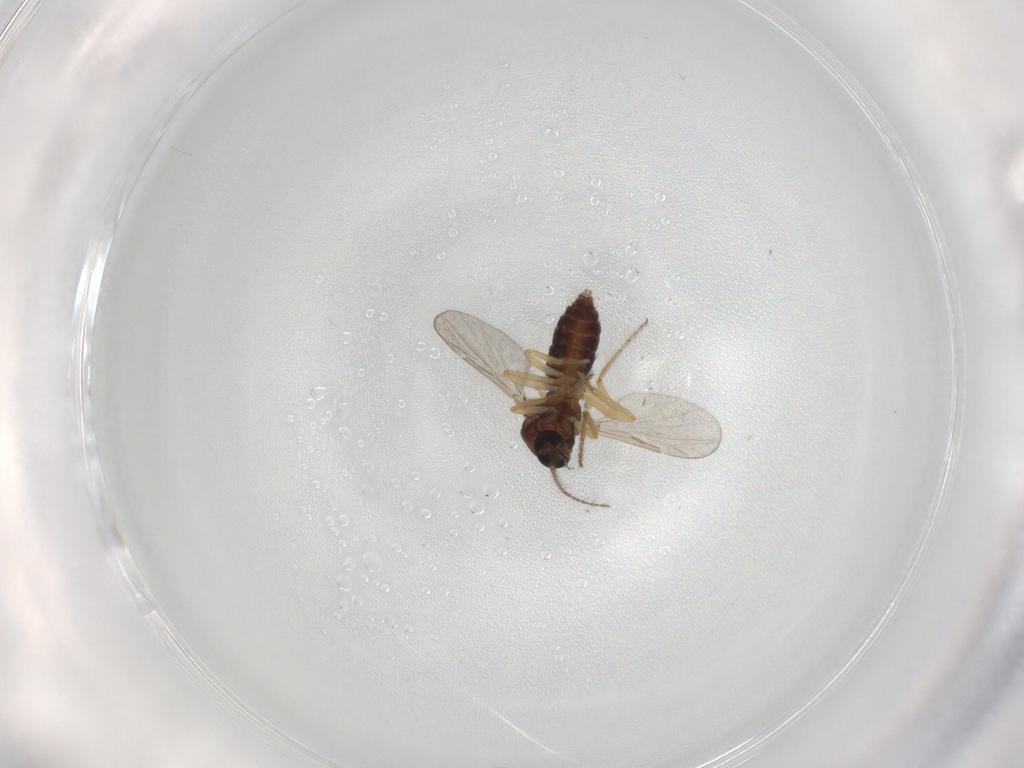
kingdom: Animalia
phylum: Arthropoda
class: Insecta
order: Diptera
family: Ceratopogonidae
